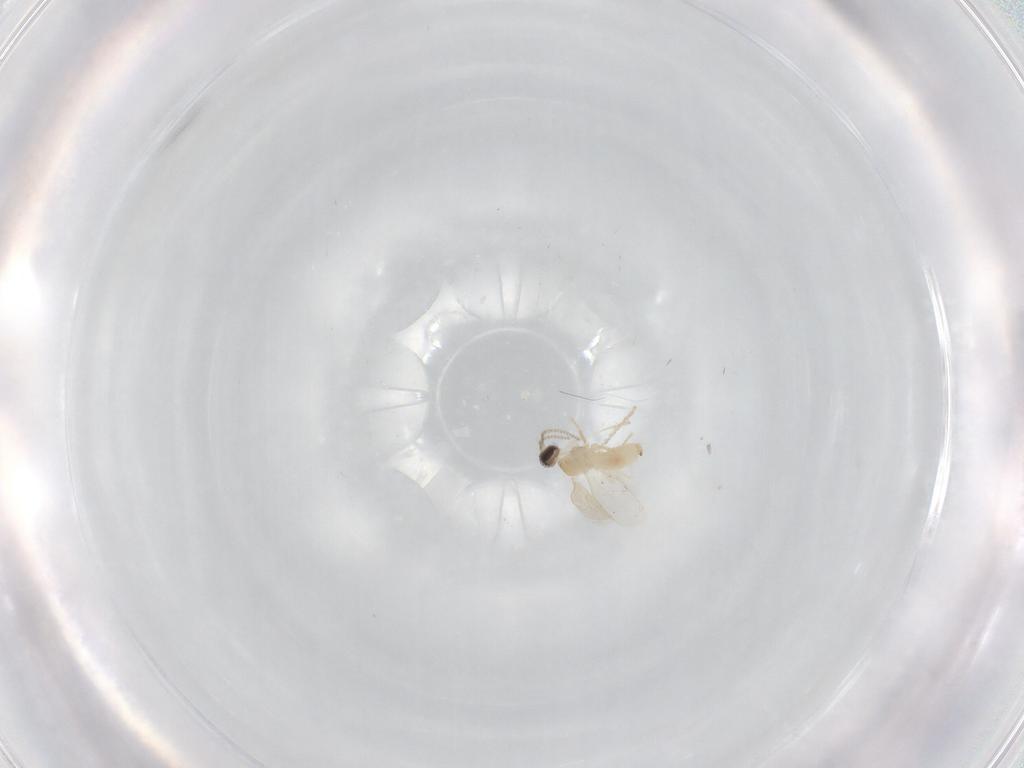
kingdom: Animalia
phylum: Arthropoda
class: Insecta
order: Diptera
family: Cecidomyiidae
